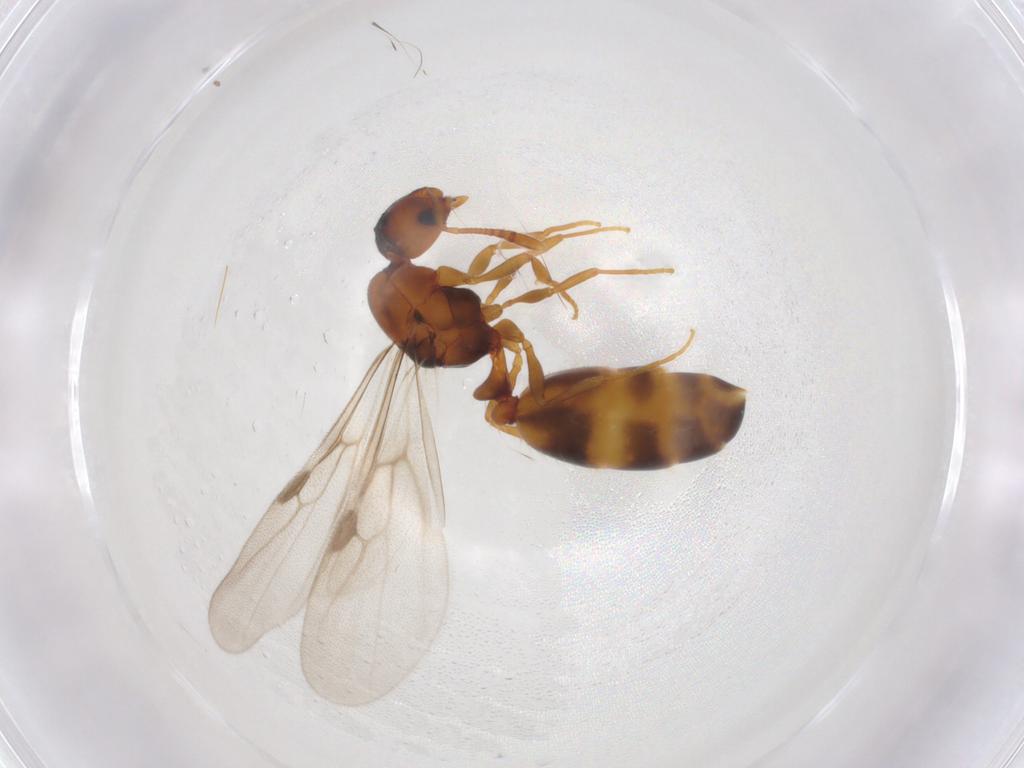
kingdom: Animalia
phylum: Arthropoda
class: Insecta
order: Hymenoptera
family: Formicidae
